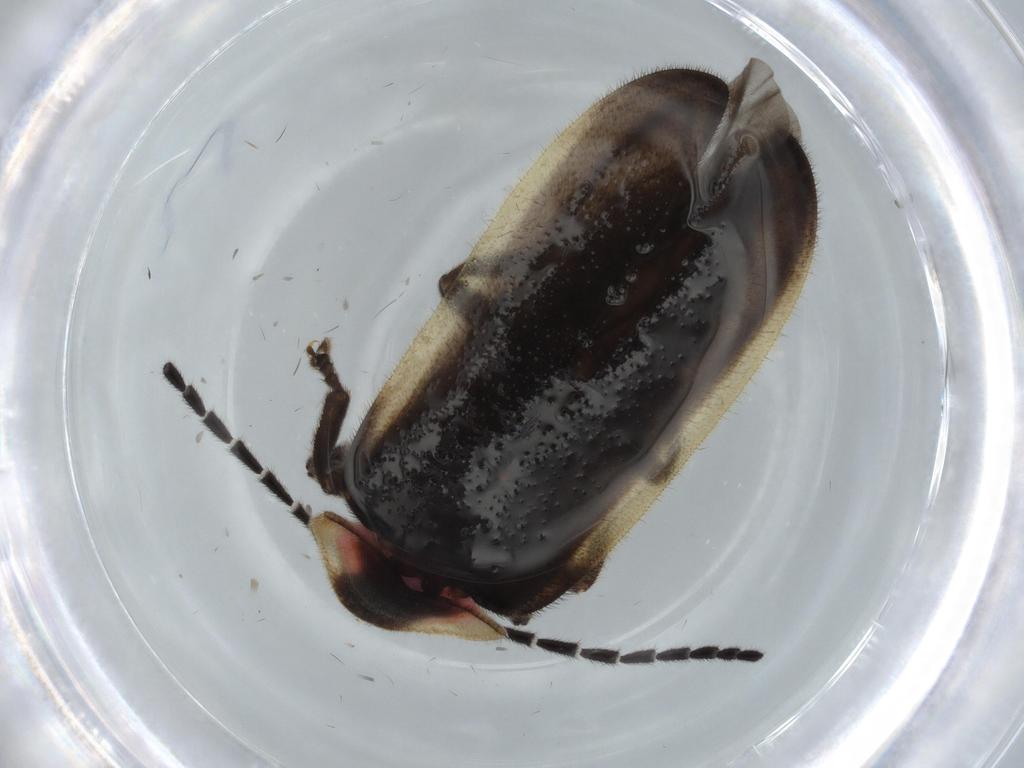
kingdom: Animalia
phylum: Arthropoda
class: Insecta
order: Coleoptera
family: Lampyridae
